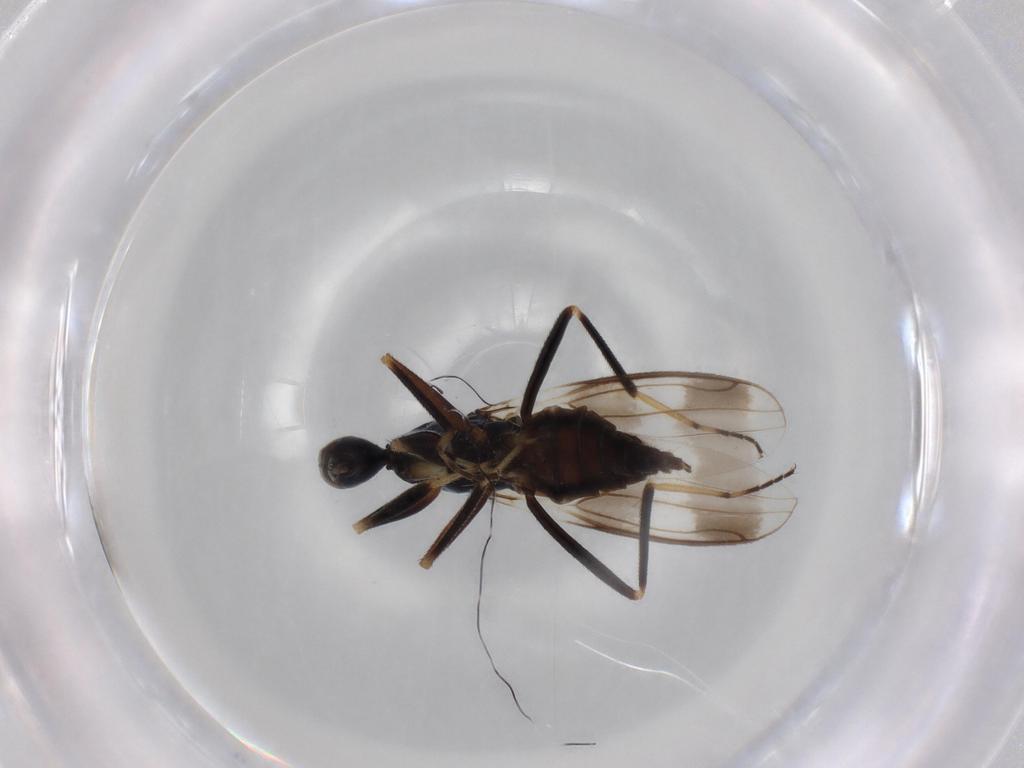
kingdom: Animalia
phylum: Arthropoda
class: Insecta
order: Diptera
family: Hybotidae
